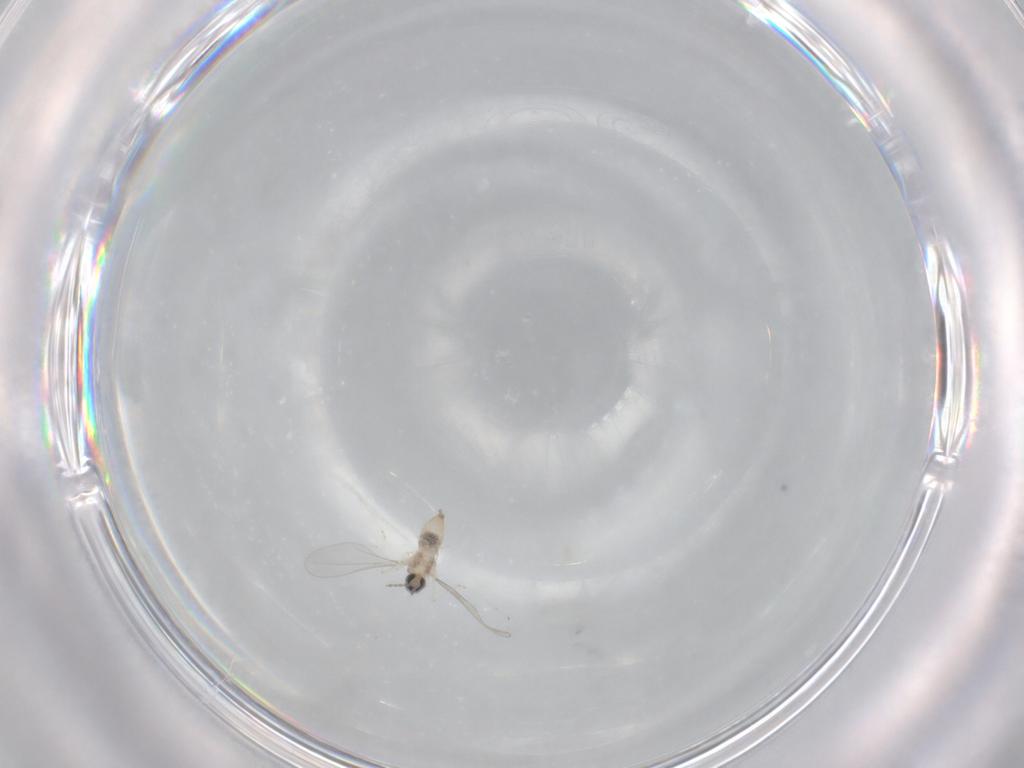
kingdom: Animalia
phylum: Arthropoda
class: Insecta
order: Diptera
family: Cecidomyiidae
